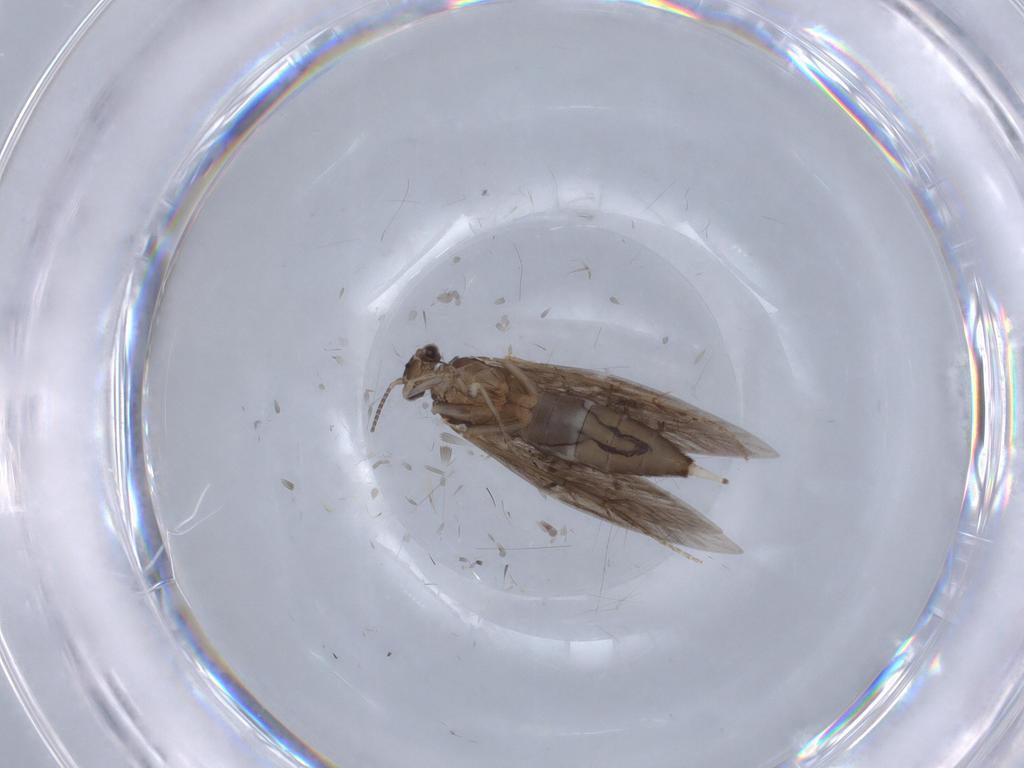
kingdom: Animalia
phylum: Arthropoda
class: Insecta
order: Trichoptera
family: Hydroptilidae
